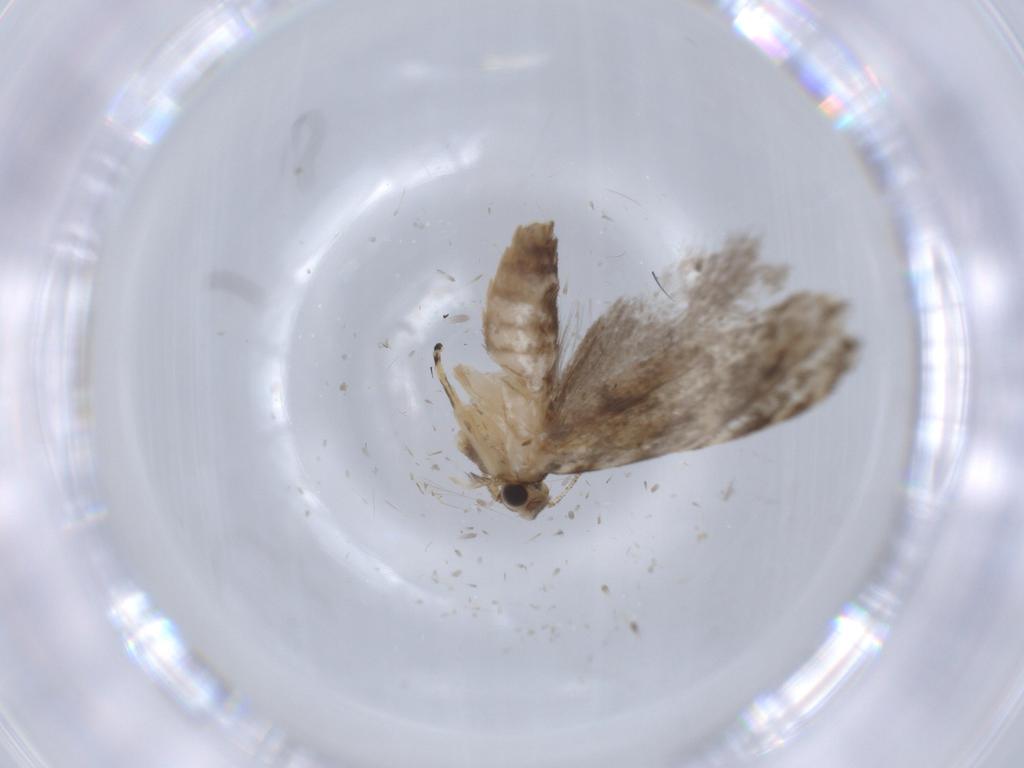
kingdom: Animalia
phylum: Arthropoda
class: Insecta
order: Lepidoptera
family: Tineidae
